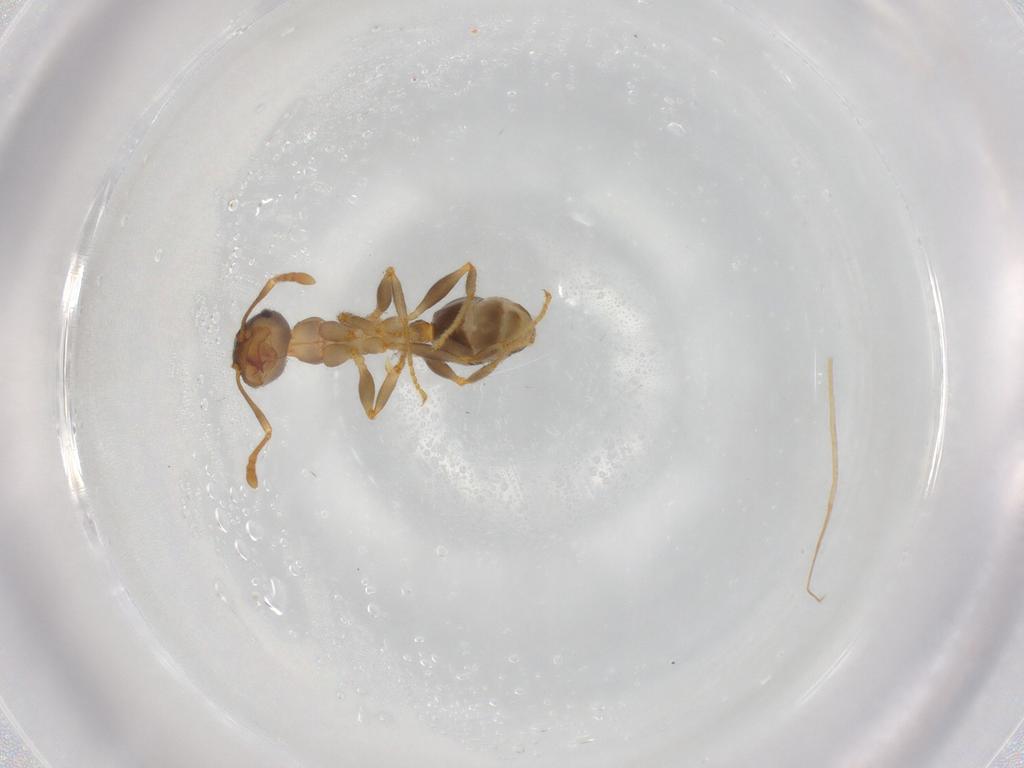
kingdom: Animalia
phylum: Arthropoda
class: Insecta
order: Hymenoptera
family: Formicidae
